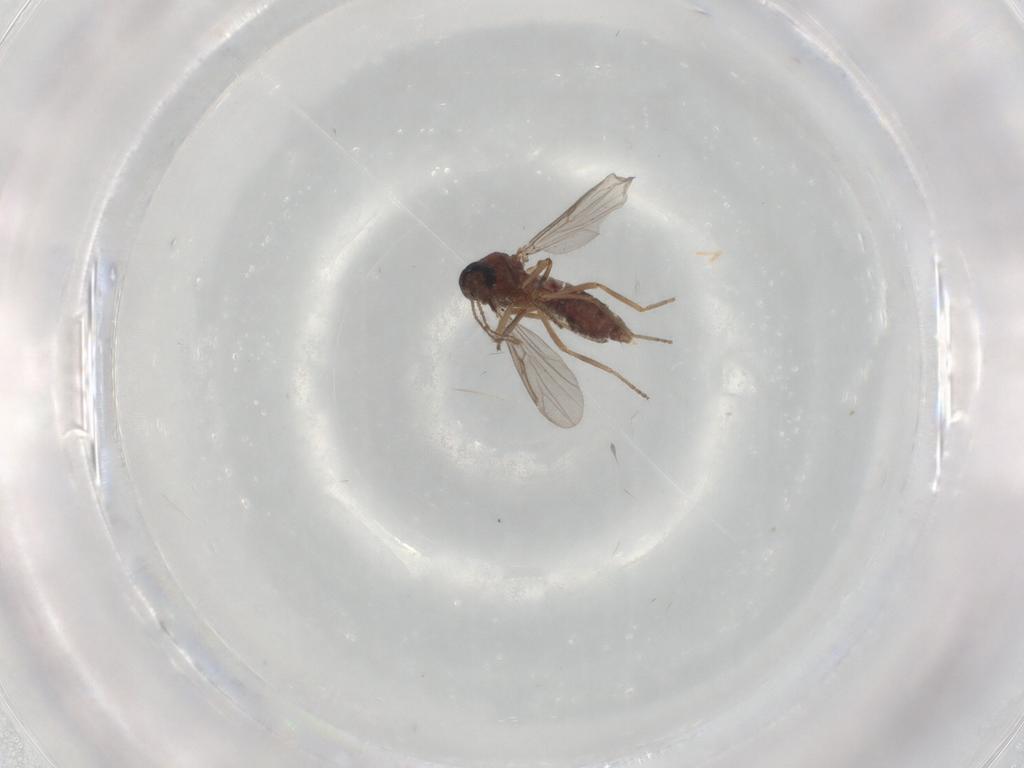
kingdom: Animalia
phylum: Arthropoda
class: Insecta
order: Diptera
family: Ceratopogonidae
